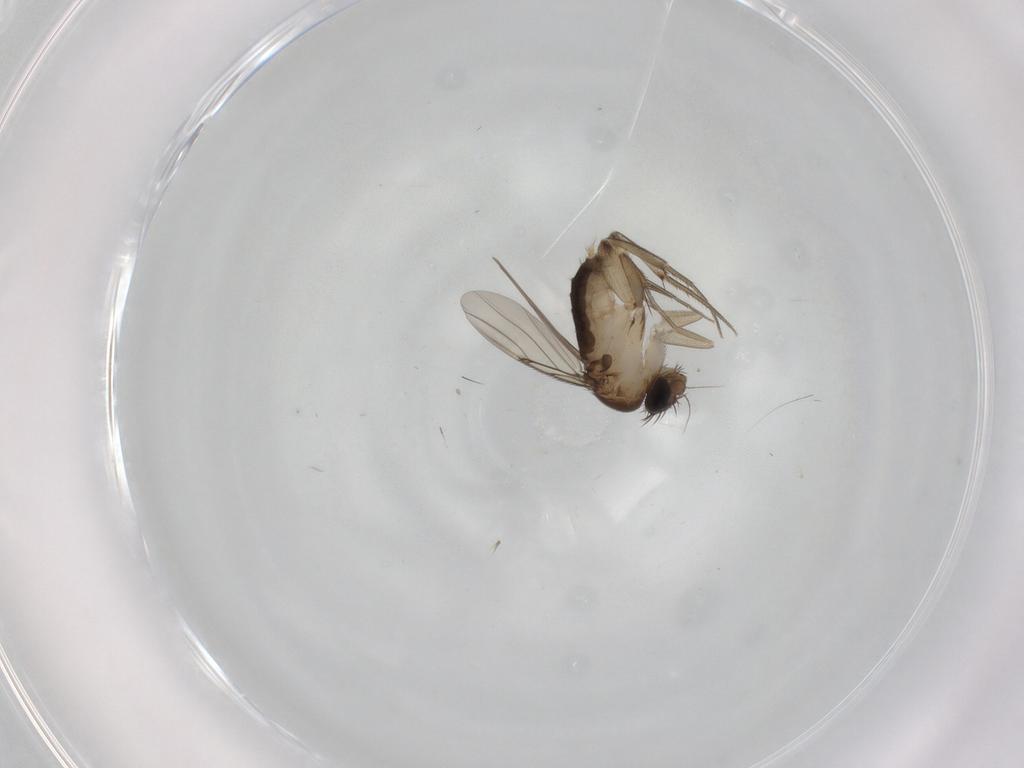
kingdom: Animalia
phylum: Arthropoda
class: Insecta
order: Diptera
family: Phoridae
